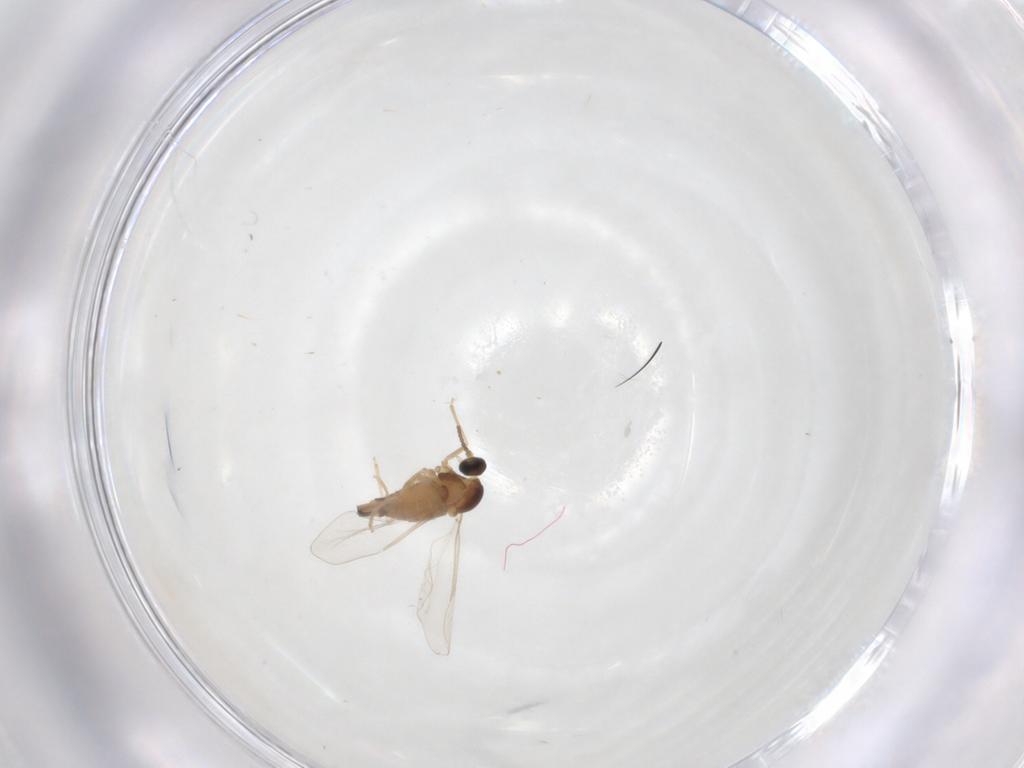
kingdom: Animalia
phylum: Arthropoda
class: Insecta
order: Diptera
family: Cecidomyiidae
